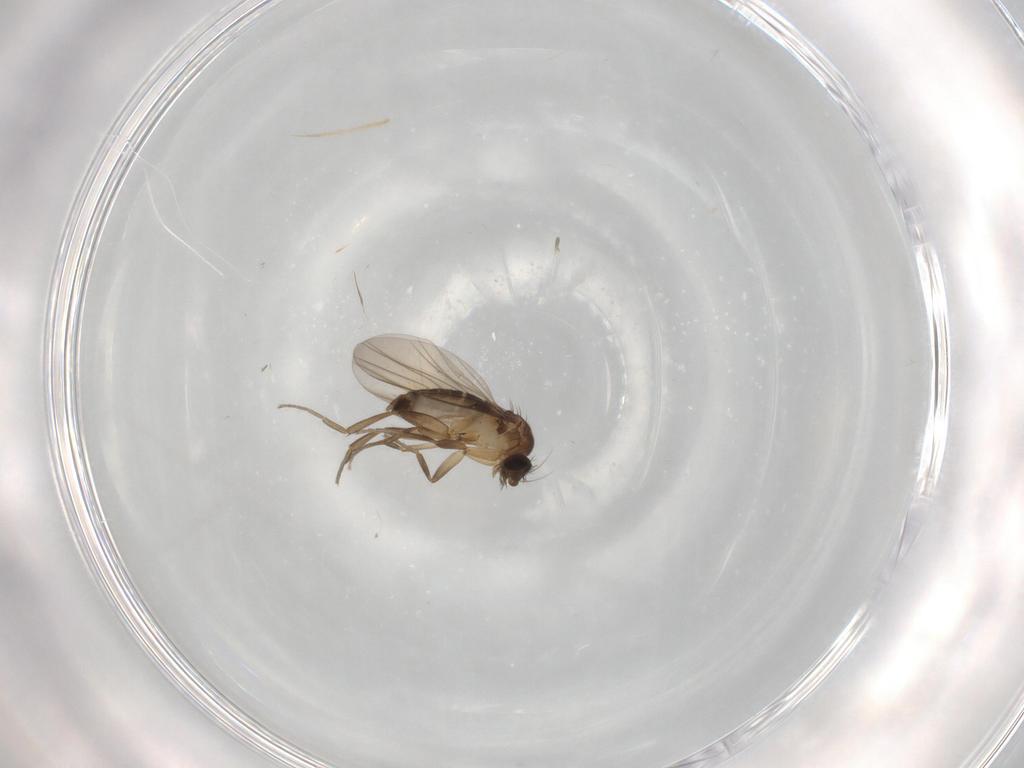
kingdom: Animalia
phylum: Arthropoda
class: Insecta
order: Diptera
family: Phoridae
